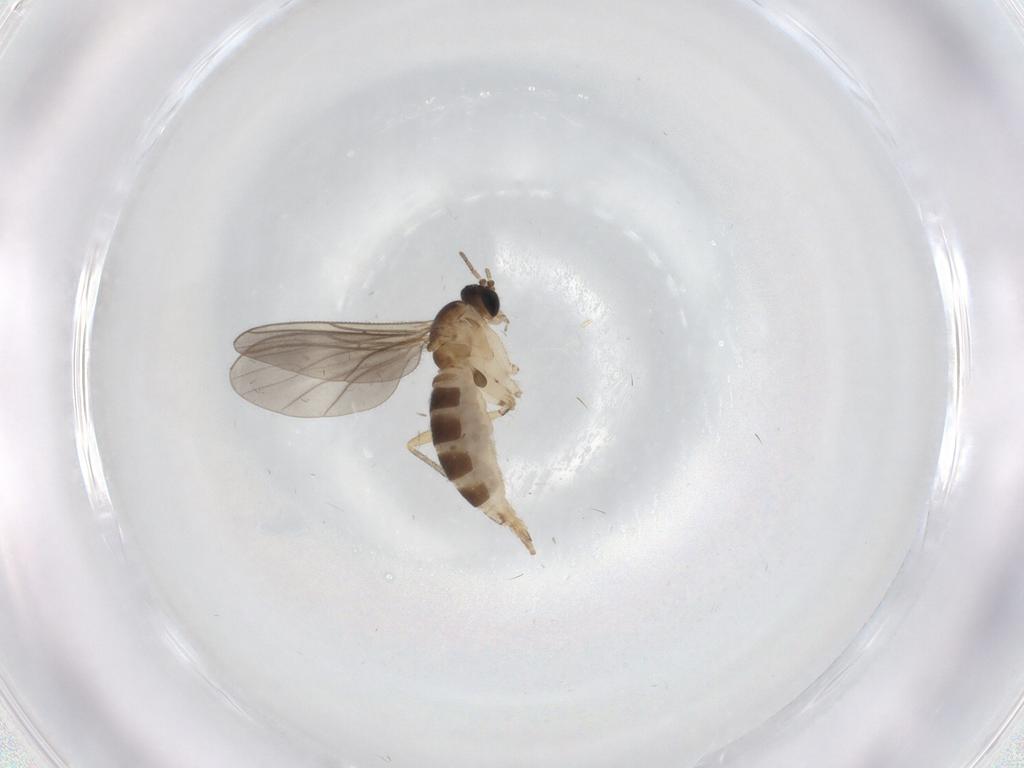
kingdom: Animalia
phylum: Arthropoda
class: Insecta
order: Diptera
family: Sciaridae
